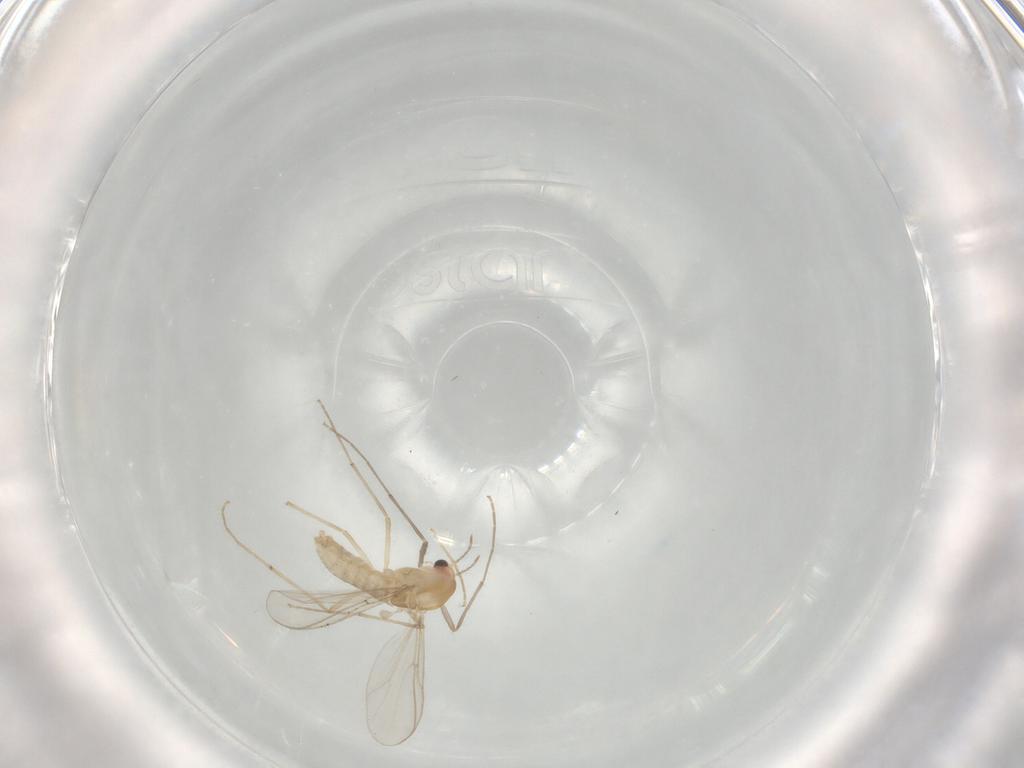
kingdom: Animalia
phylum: Arthropoda
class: Insecta
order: Diptera
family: Chironomidae
